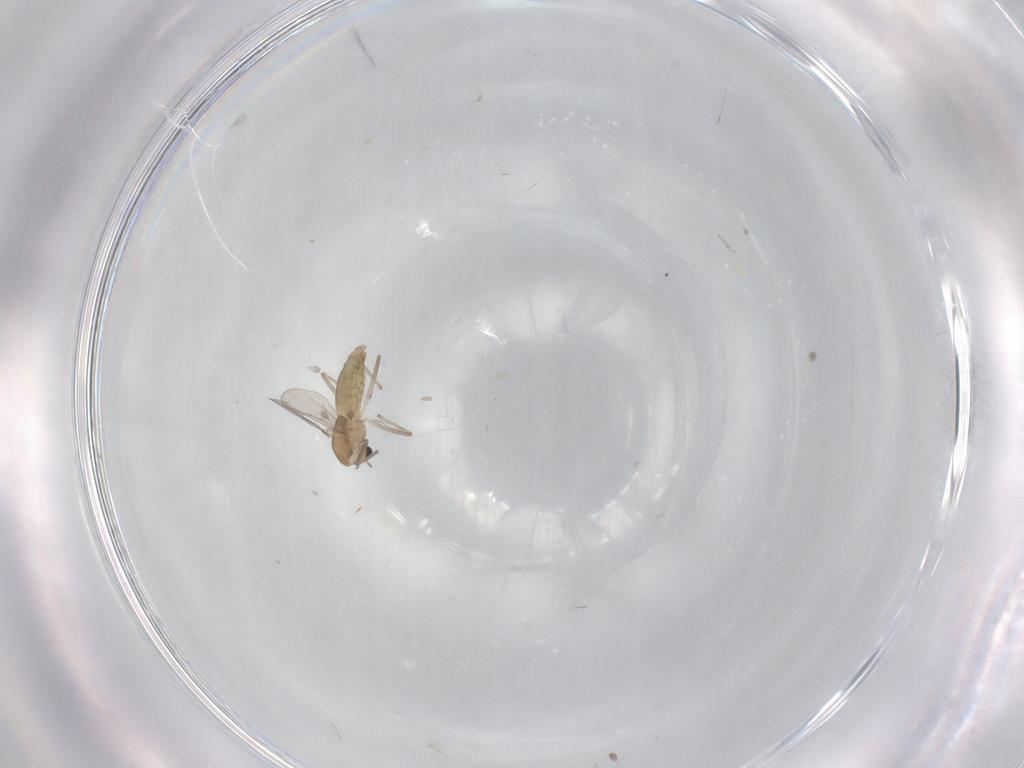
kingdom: Animalia
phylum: Arthropoda
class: Insecta
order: Diptera
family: Chironomidae
